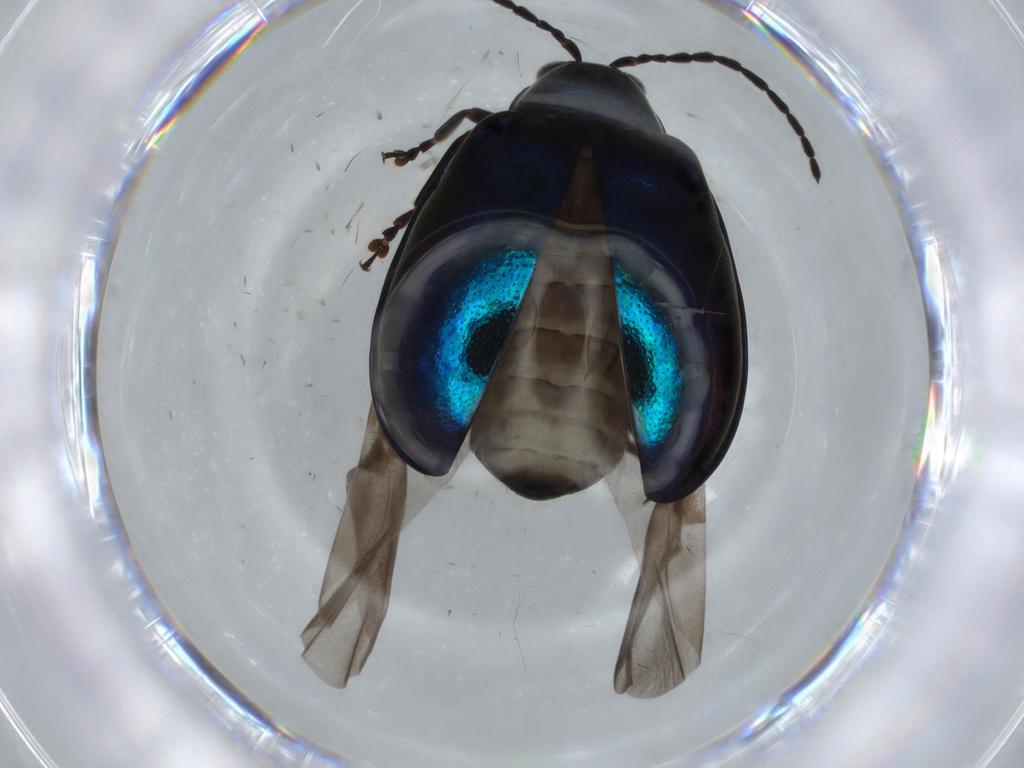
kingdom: Animalia
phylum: Arthropoda
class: Insecta
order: Coleoptera
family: Chrysomelidae
